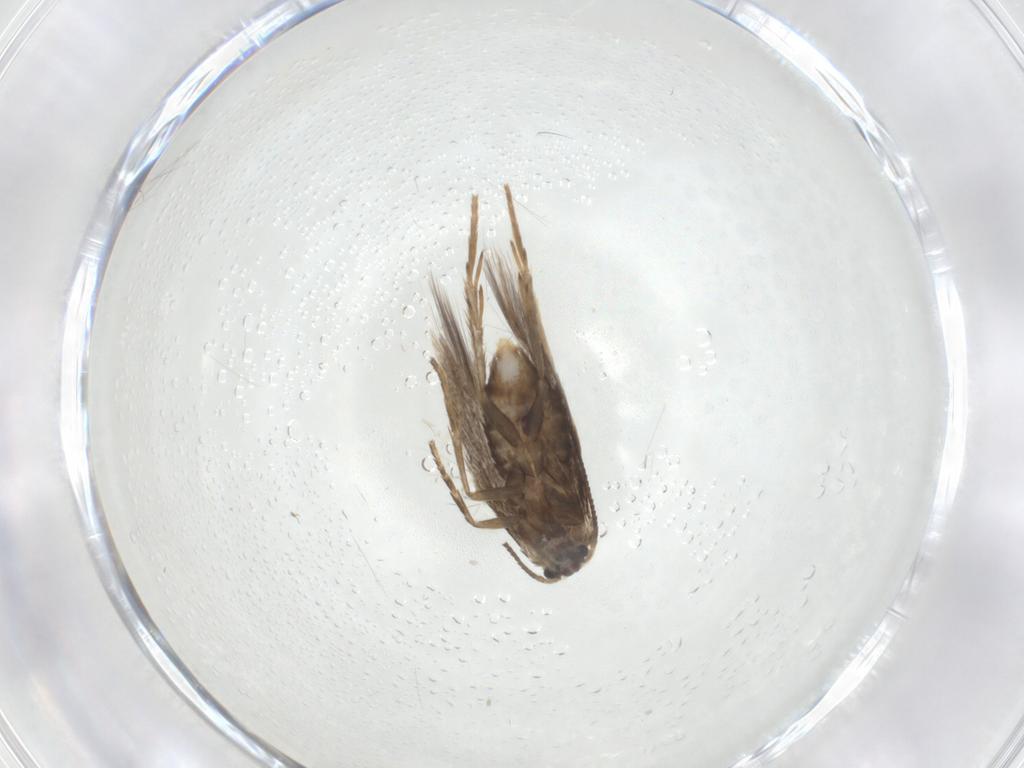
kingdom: Animalia
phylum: Arthropoda
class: Insecta
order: Lepidoptera
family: Nepticulidae
